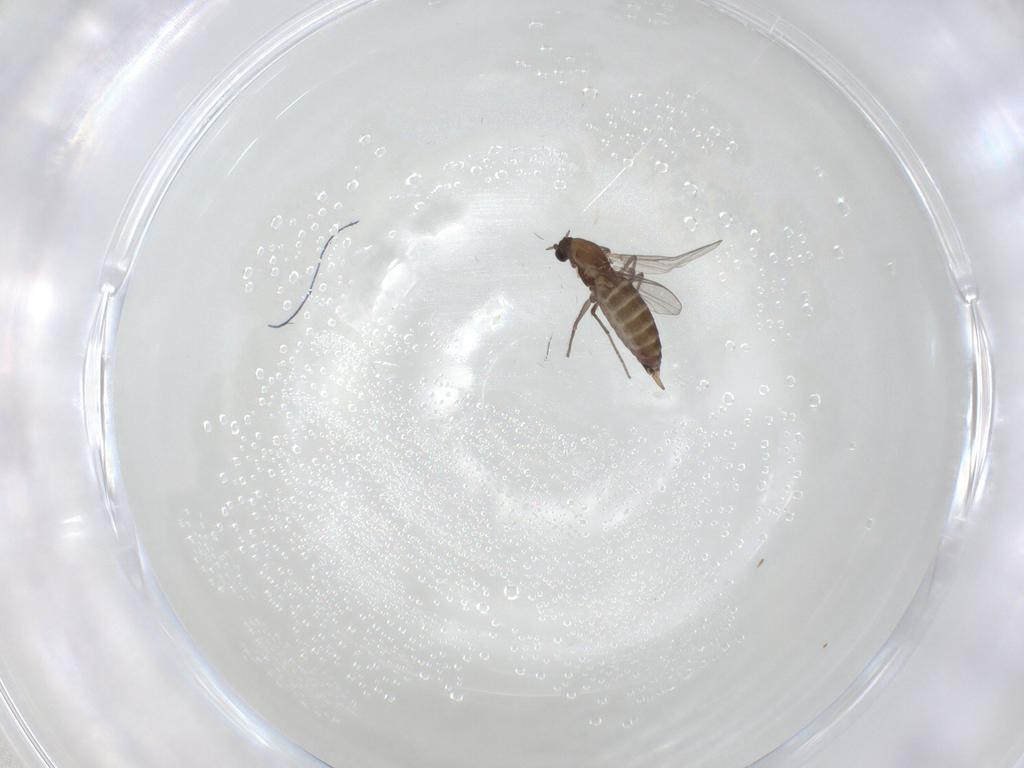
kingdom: Animalia
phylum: Arthropoda
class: Insecta
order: Diptera
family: Chironomidae
